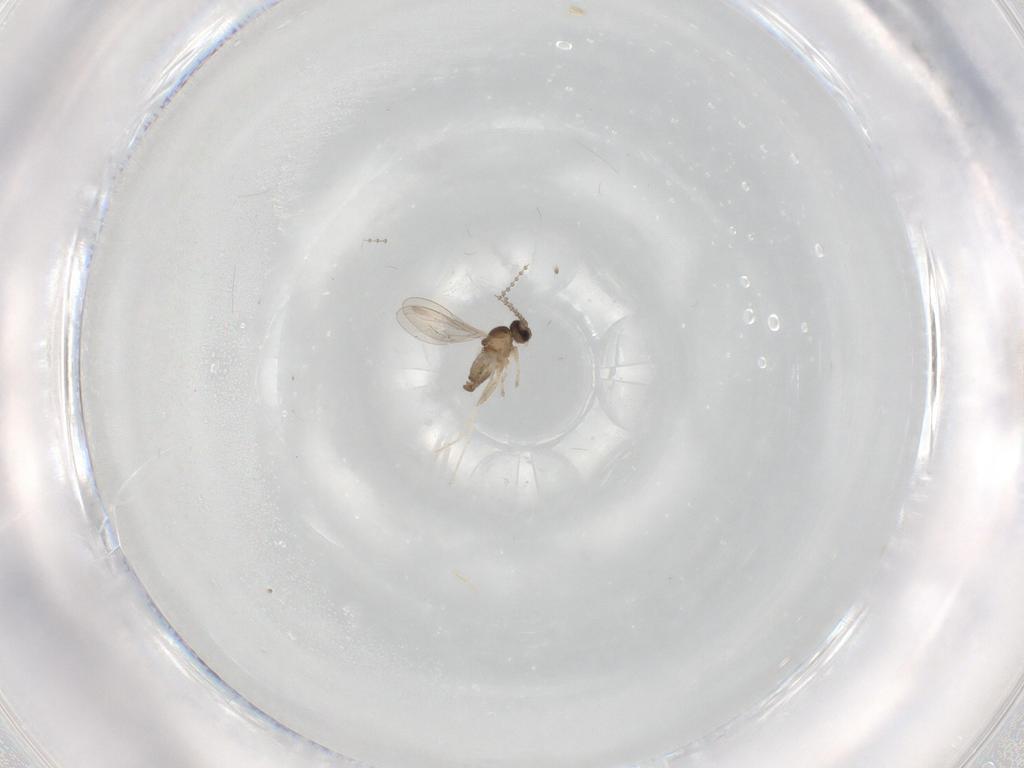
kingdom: Animalia
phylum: Arthropoda
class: Insecta
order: Diptera
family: Cecidomyiidae
